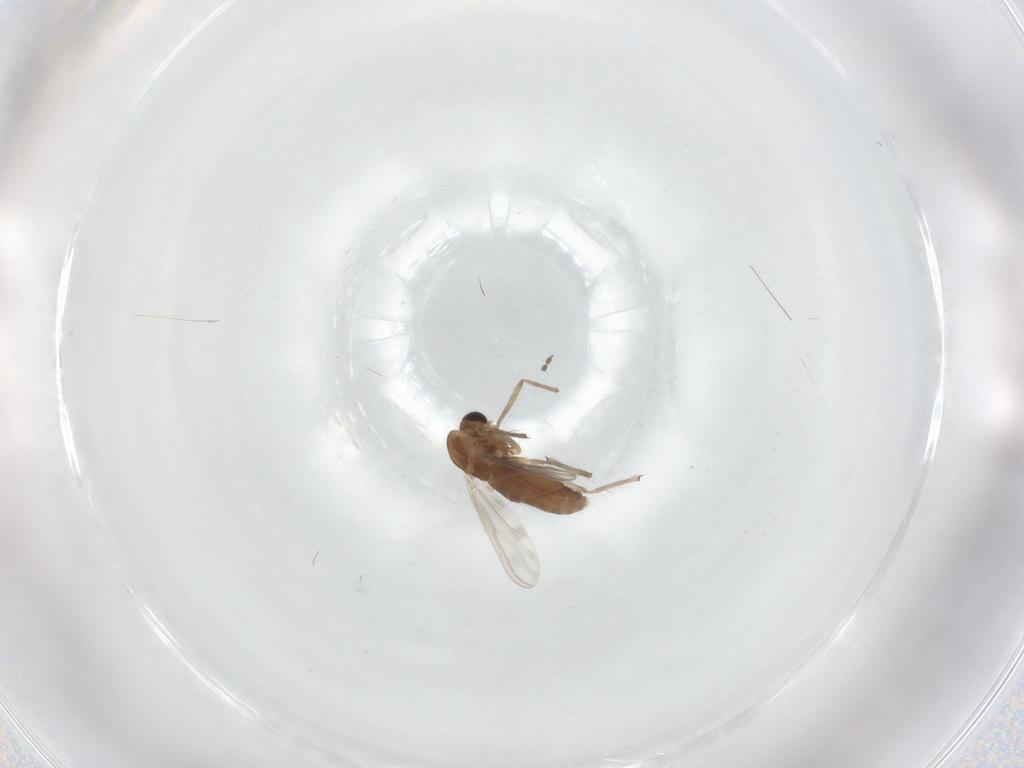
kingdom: Animalia
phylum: Arthropoda
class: Insecta
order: Diptera
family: Chironomidae
